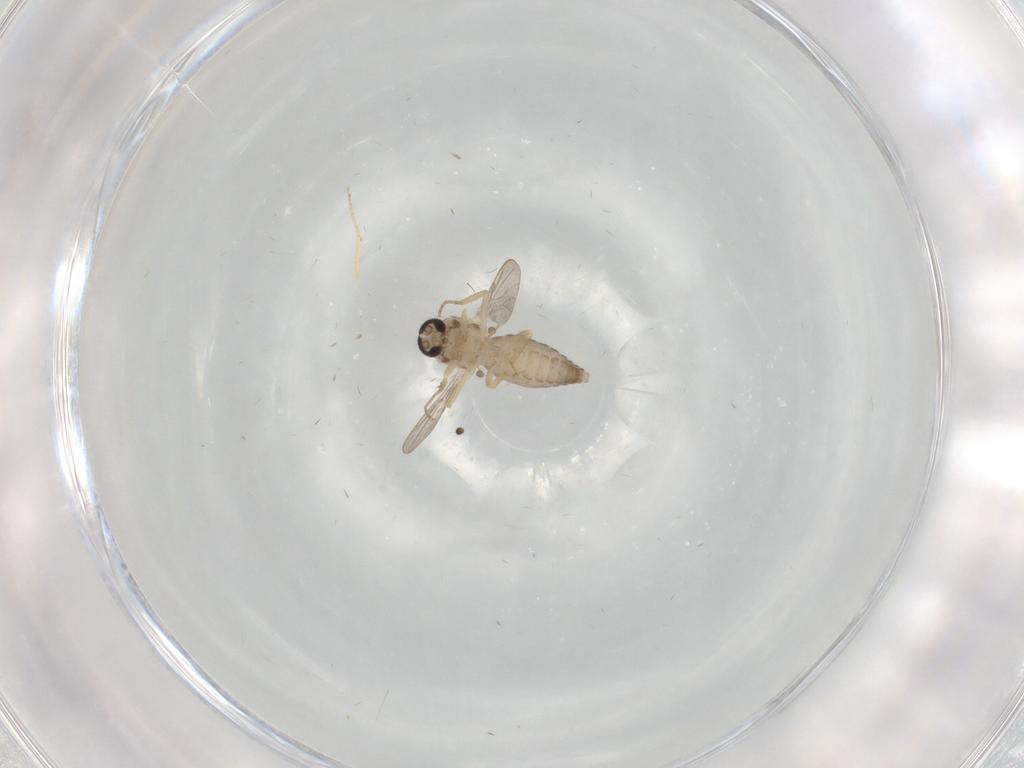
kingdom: Animalia
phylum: Arthropoda
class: Insecta
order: Diptera
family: Ceratopogonidae
